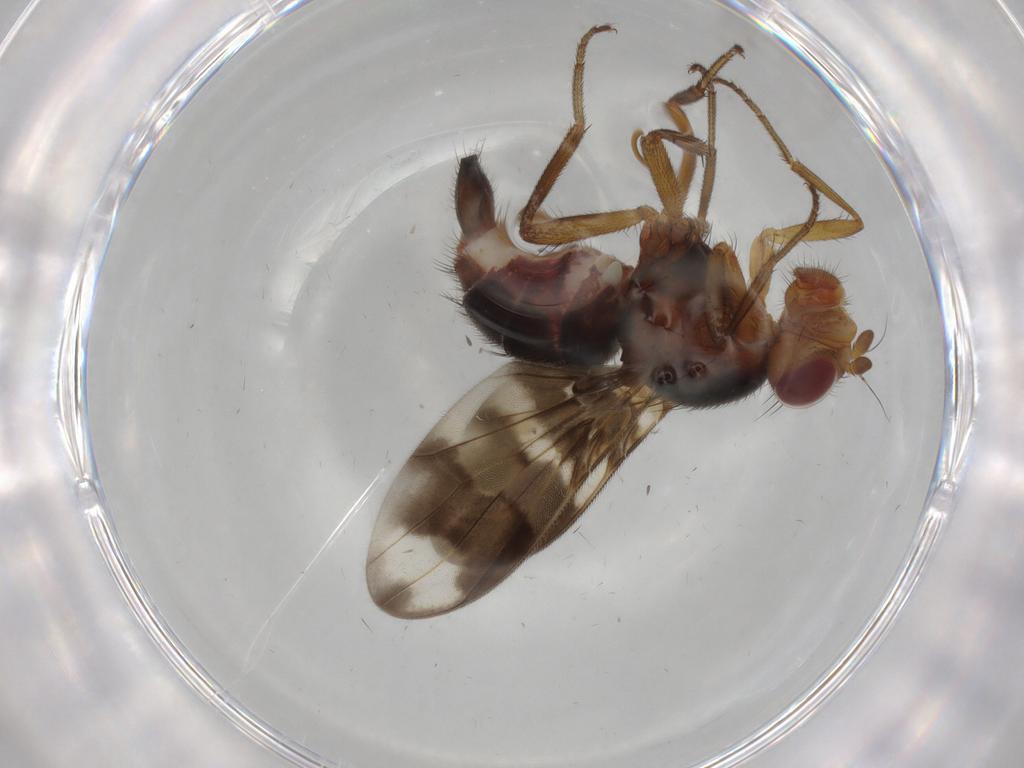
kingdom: Animalia
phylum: Arthropoda
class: Insecta
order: Diptera
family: Richardiidae
